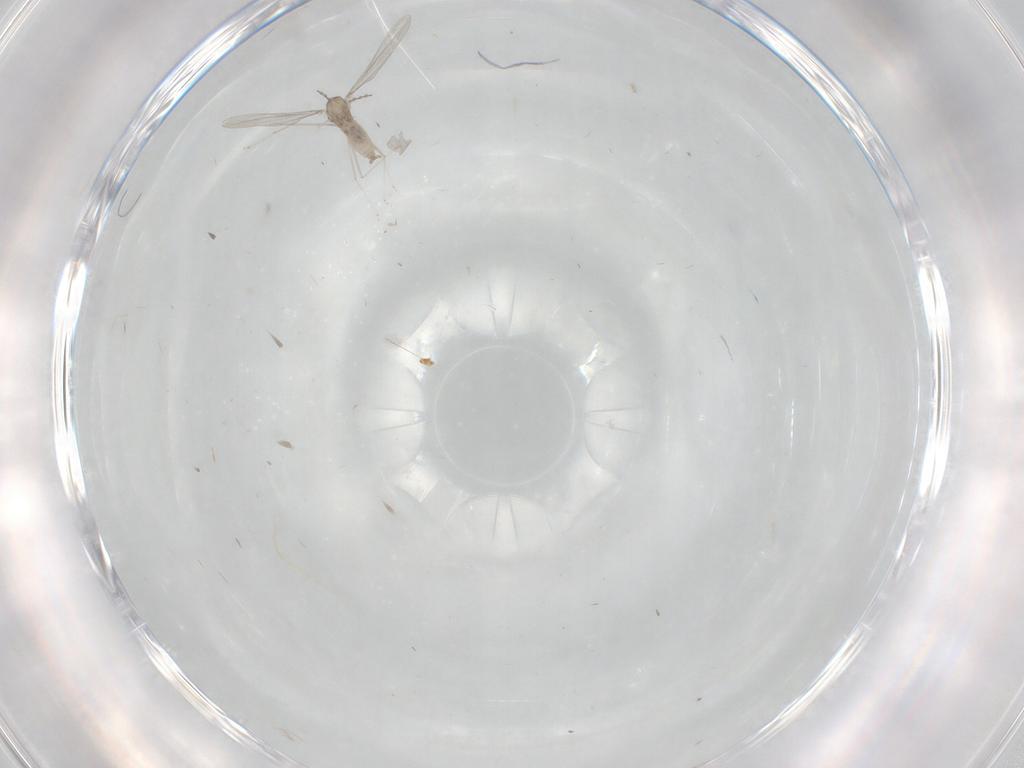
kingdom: Animalia
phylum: Arthropoda
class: Insecta
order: Diptera
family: Cecidomyiidae
